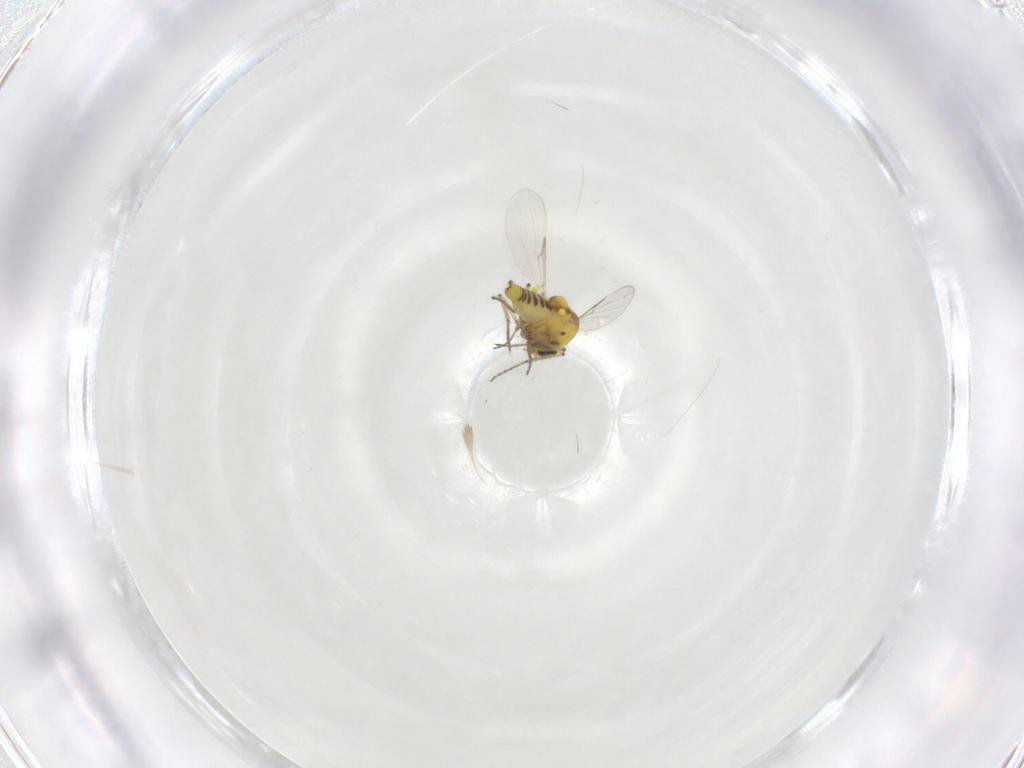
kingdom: Animalia
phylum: Arthropoda
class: Insecta
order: Diptera
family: Ceratopogonidae
